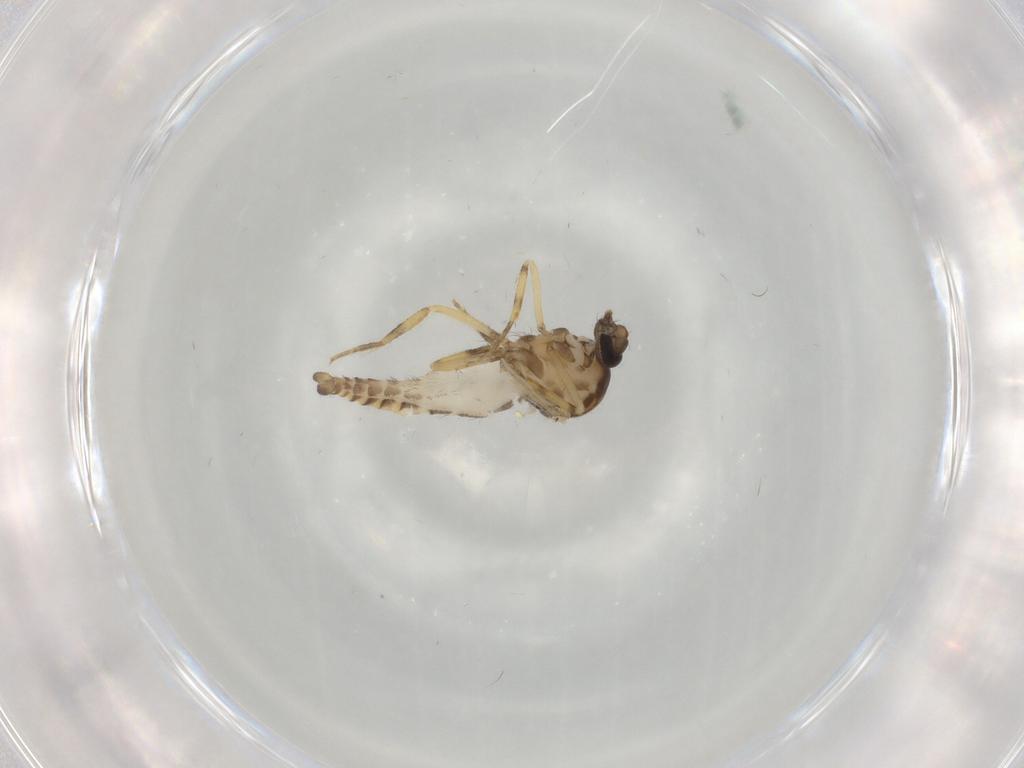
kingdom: Animalia
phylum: Arthropoda
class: Insecta
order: Diptera
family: Ceratopogonidae
